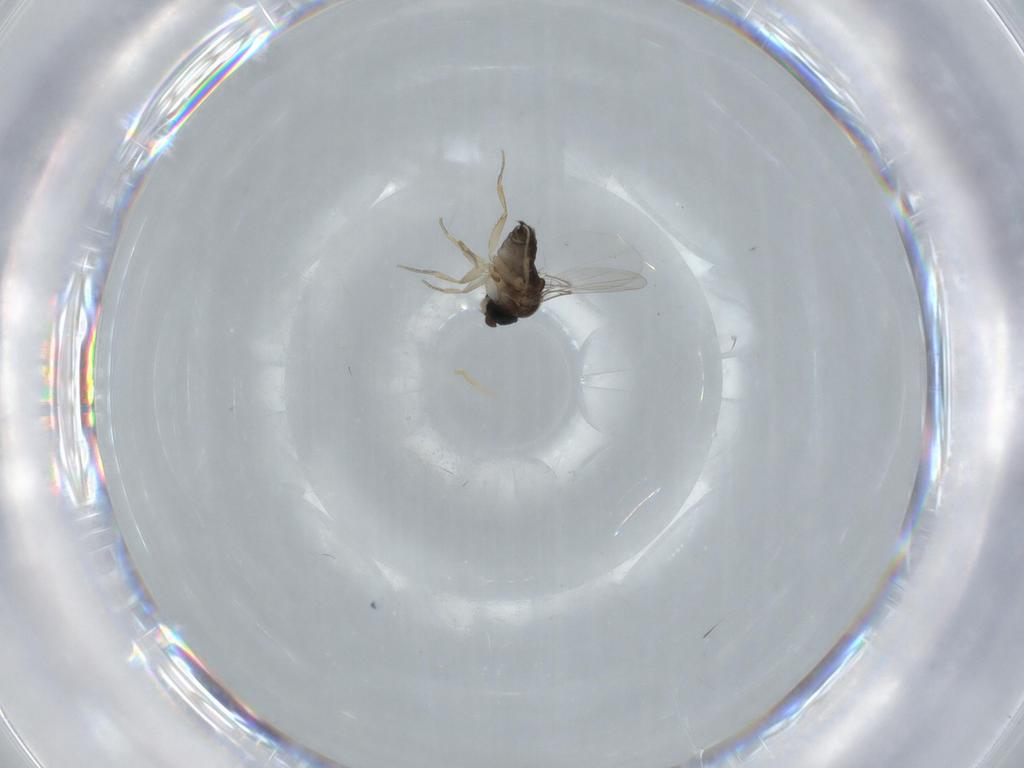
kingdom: Animalia
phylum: Arthropoda
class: Insecta
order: Diptera
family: Phoridae
